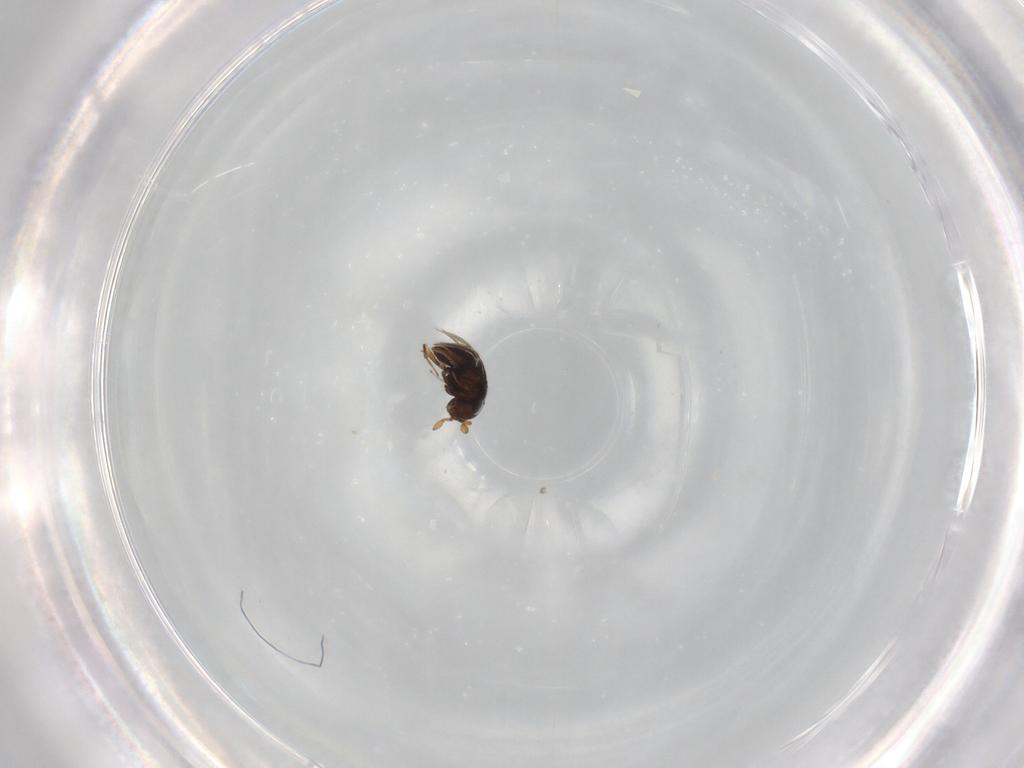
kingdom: Animalia
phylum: Arthropoda
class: Insecta
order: Hymenoptera
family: Scelionidae
